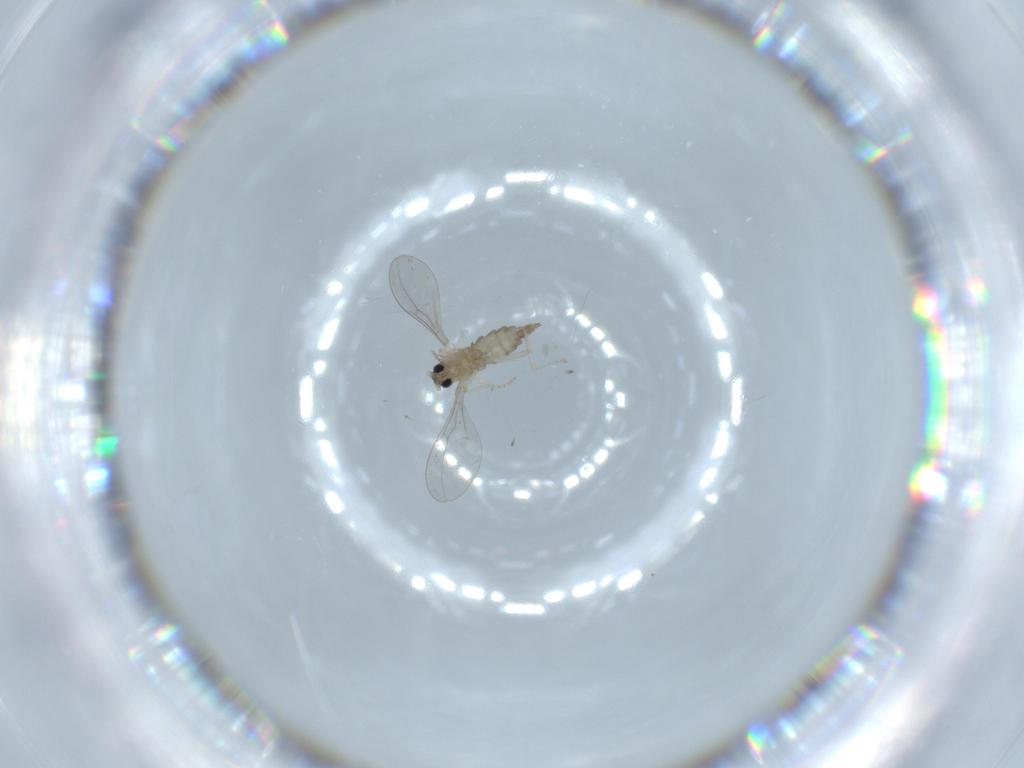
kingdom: Animalia
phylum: Arthropoda
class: Insecta
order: Diptera
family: Cecidomyiidae
